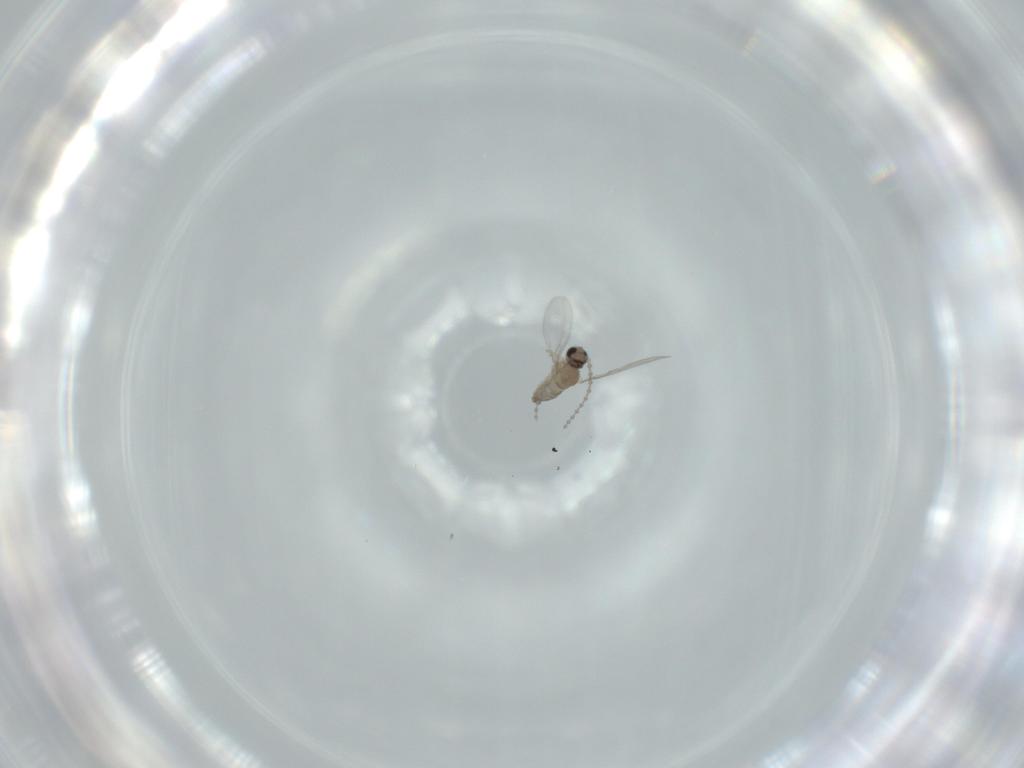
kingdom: Animalia
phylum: Arthropoda
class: Insecta
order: Diptera
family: Cecidomyiidae
